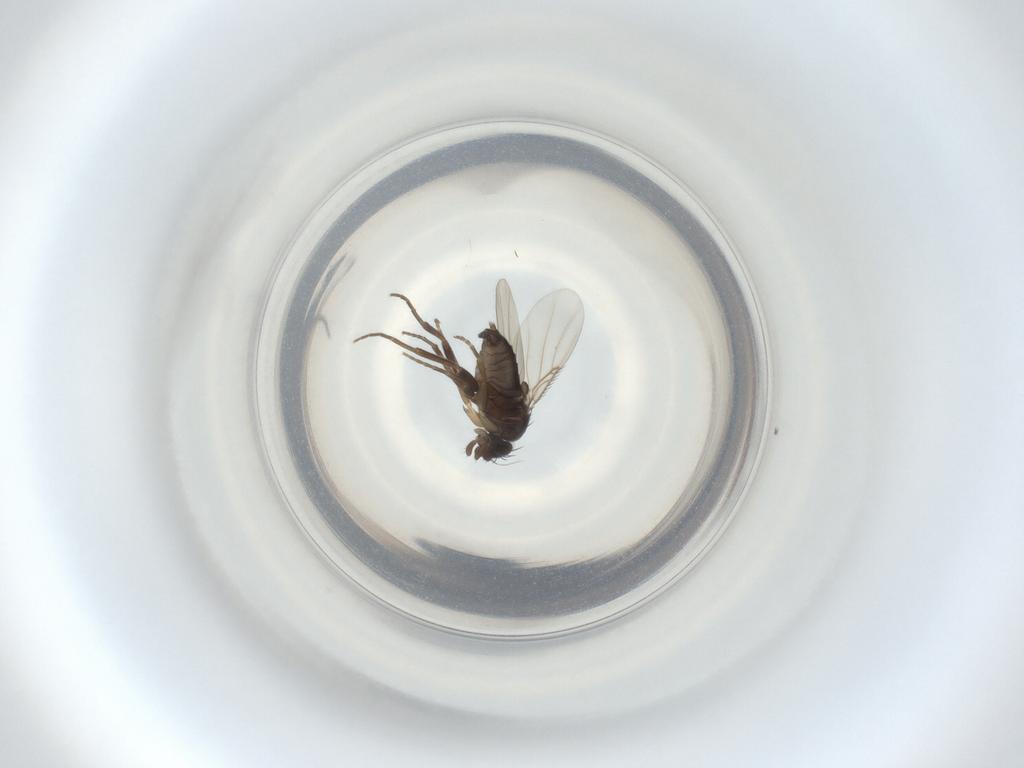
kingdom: Animalia
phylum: Arthropoda
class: Insecta
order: Diptera
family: Phoridae
